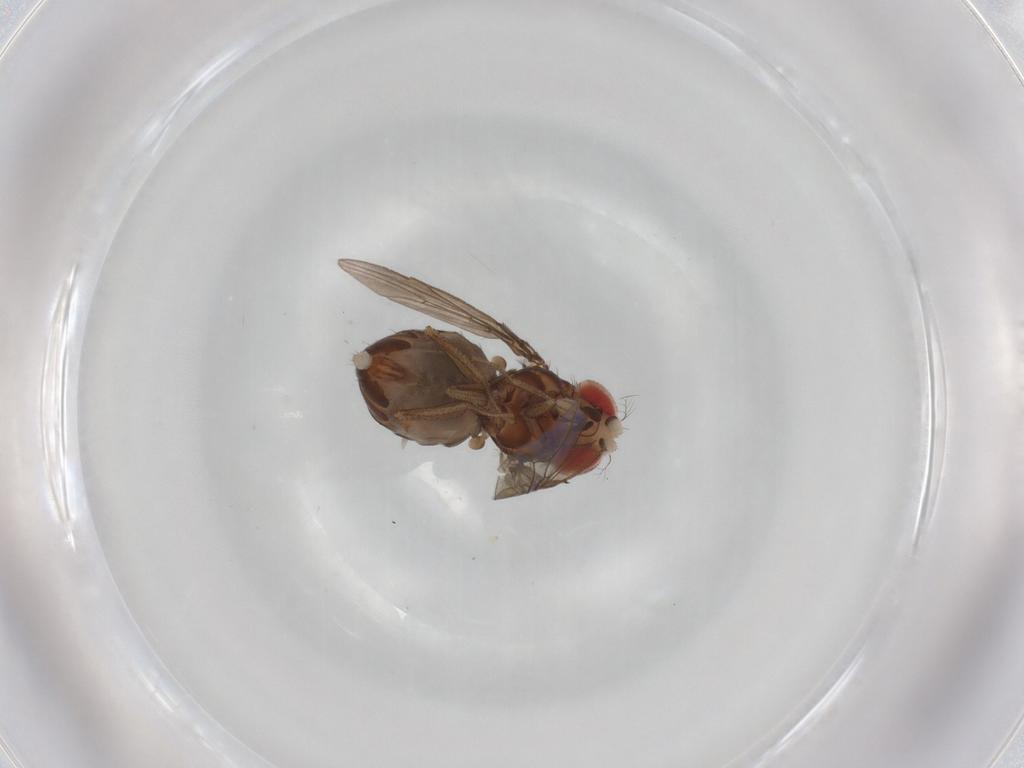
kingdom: Animalia
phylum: Arthropoda
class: Insecta
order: Diptera
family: Drosophilidae
